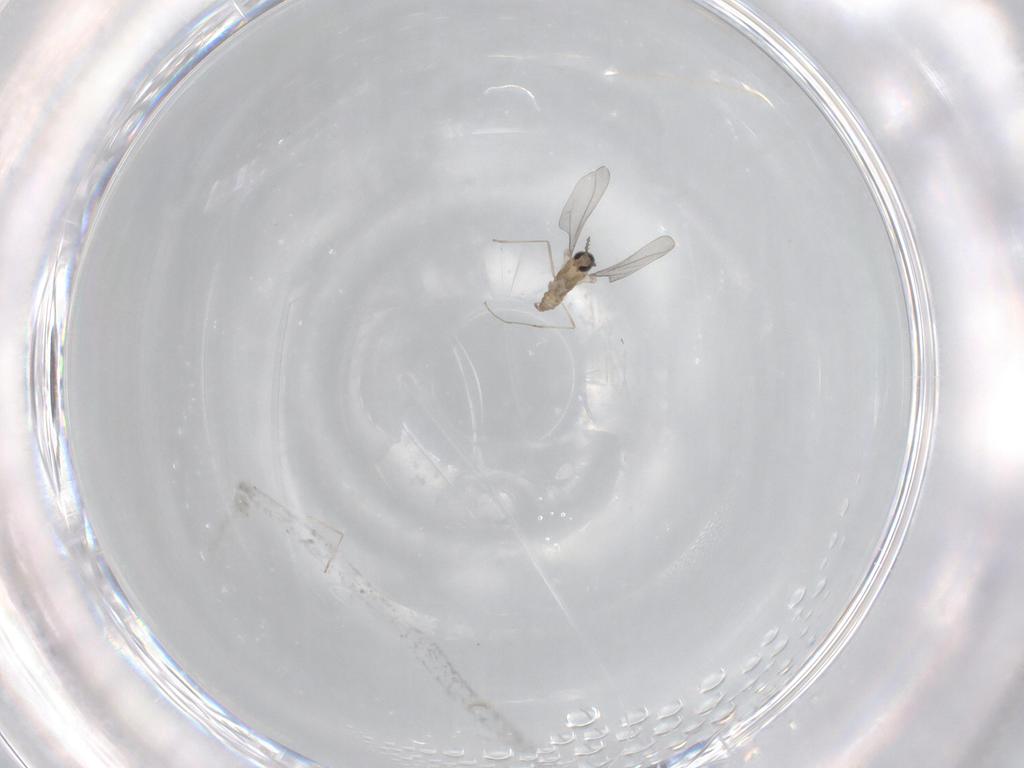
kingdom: Animalia
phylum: Arthropoda
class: Insecta
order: Diptera
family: Cecidomyiidae
